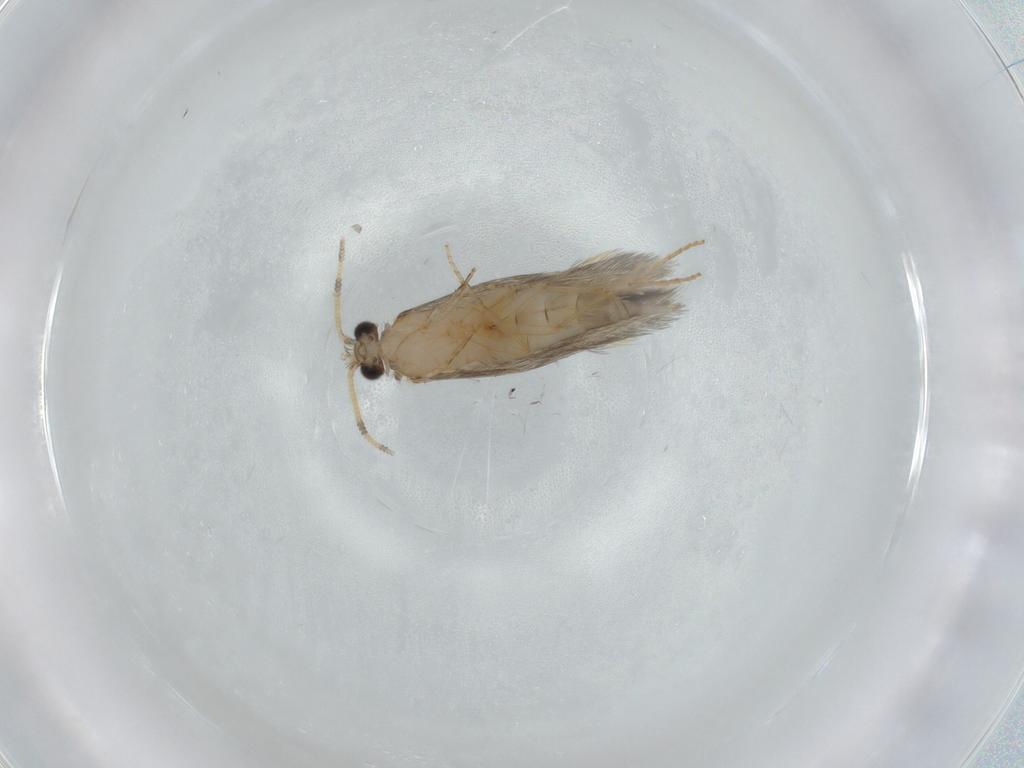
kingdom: Animalia
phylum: Arthropoda
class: Insecta
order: Trichoptera
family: Hydroptilidae
